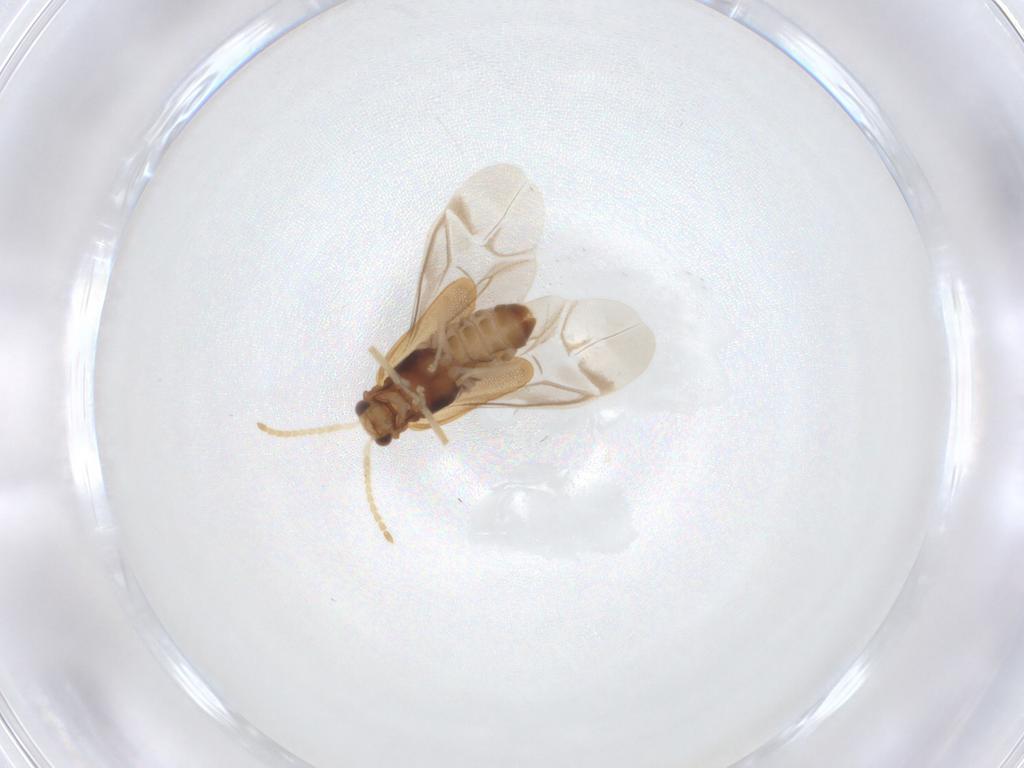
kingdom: Animalia
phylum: Arthropoda
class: Insecta
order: Coleoptera
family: Cantharidae
